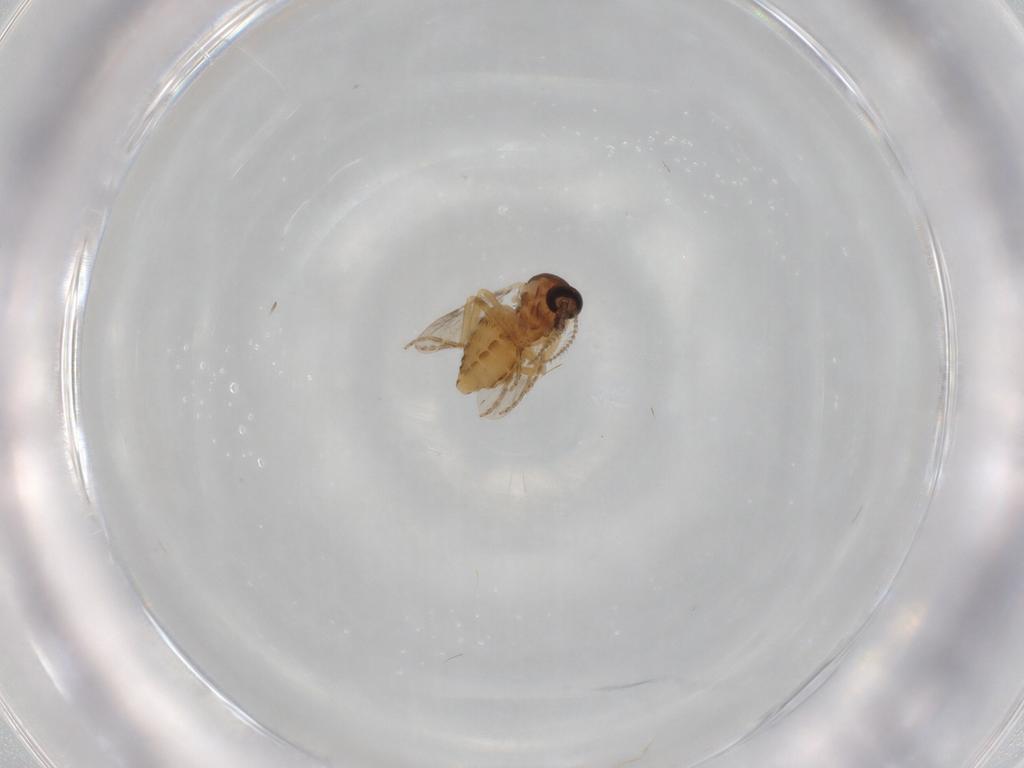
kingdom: Animalia
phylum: Arthropoda
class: Insecta
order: Diptera
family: Ceratopogonidae
